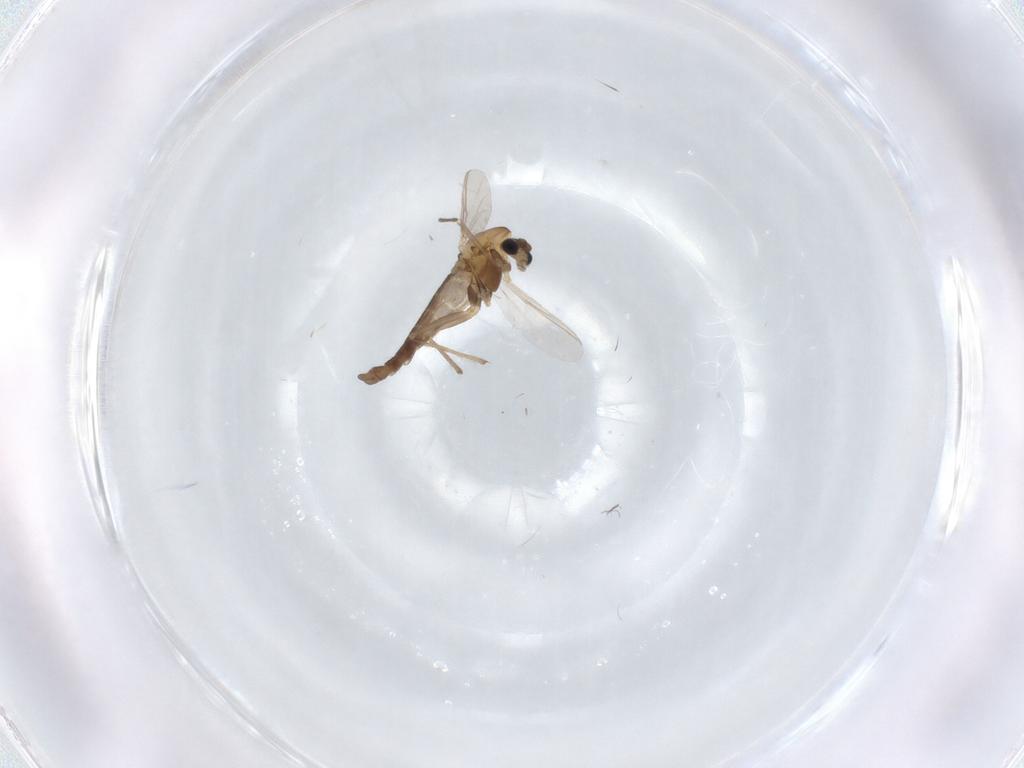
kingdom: Animalia
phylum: Arthropoda
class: Insecta
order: Diptera
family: Chironomidae
